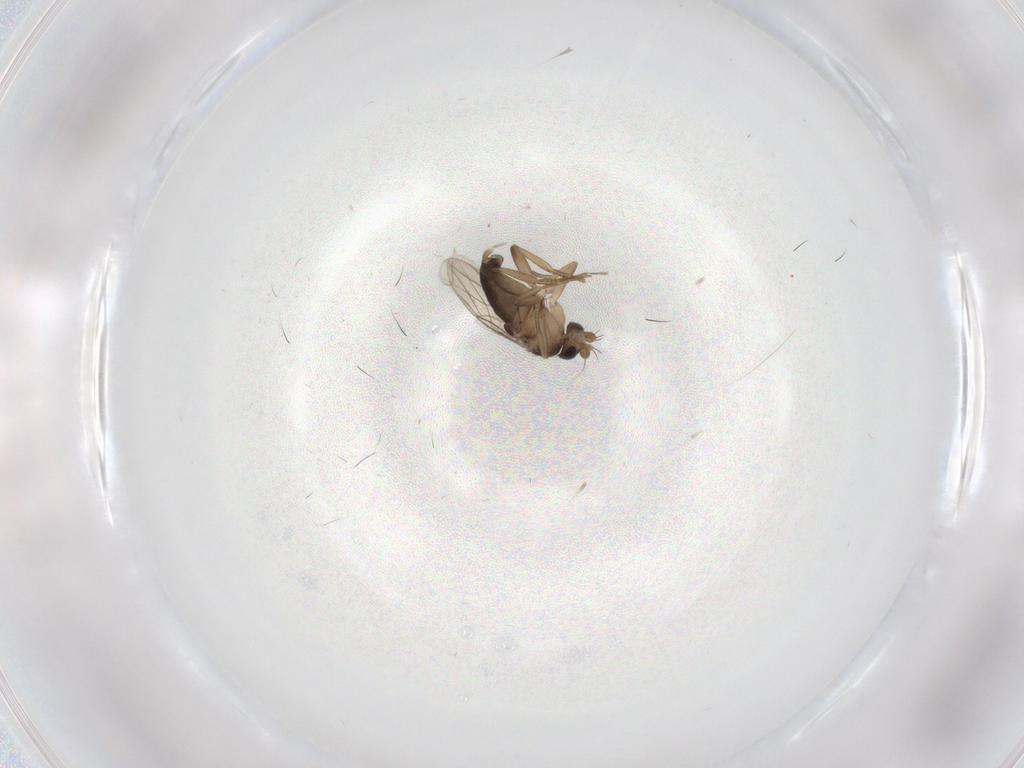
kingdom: Animalia
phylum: Arthropoda
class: Insecta
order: Diptera
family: Phoridae
